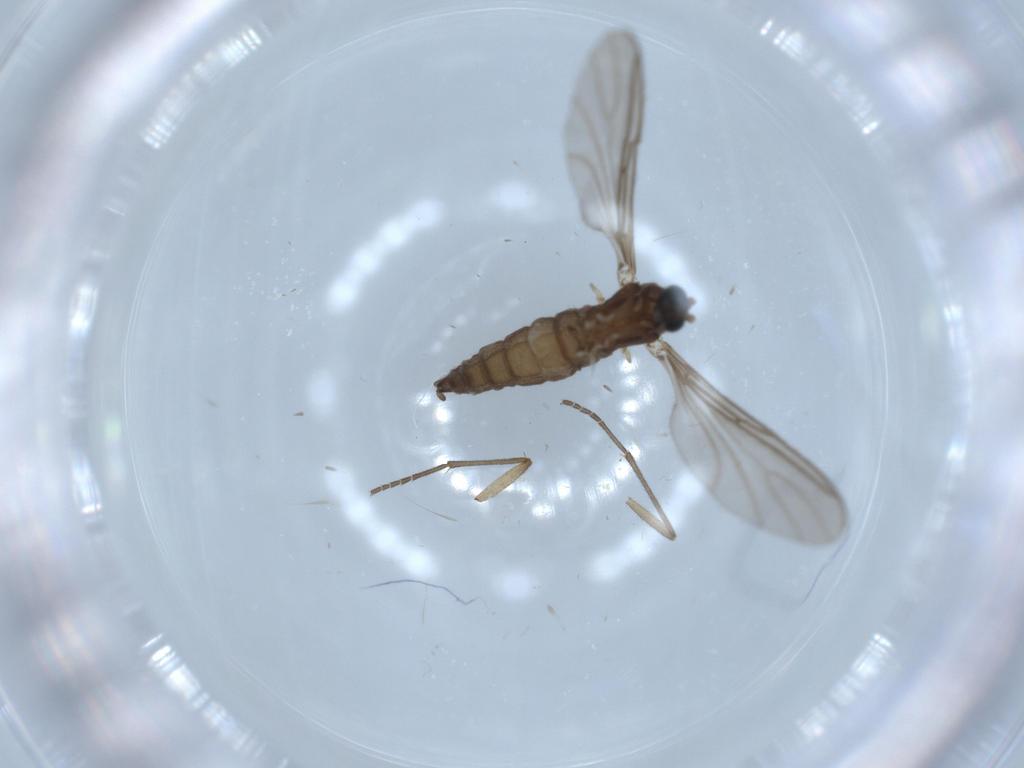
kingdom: Animalia
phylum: Arthropoda
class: Insecta
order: Diptera
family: Sciaridae
